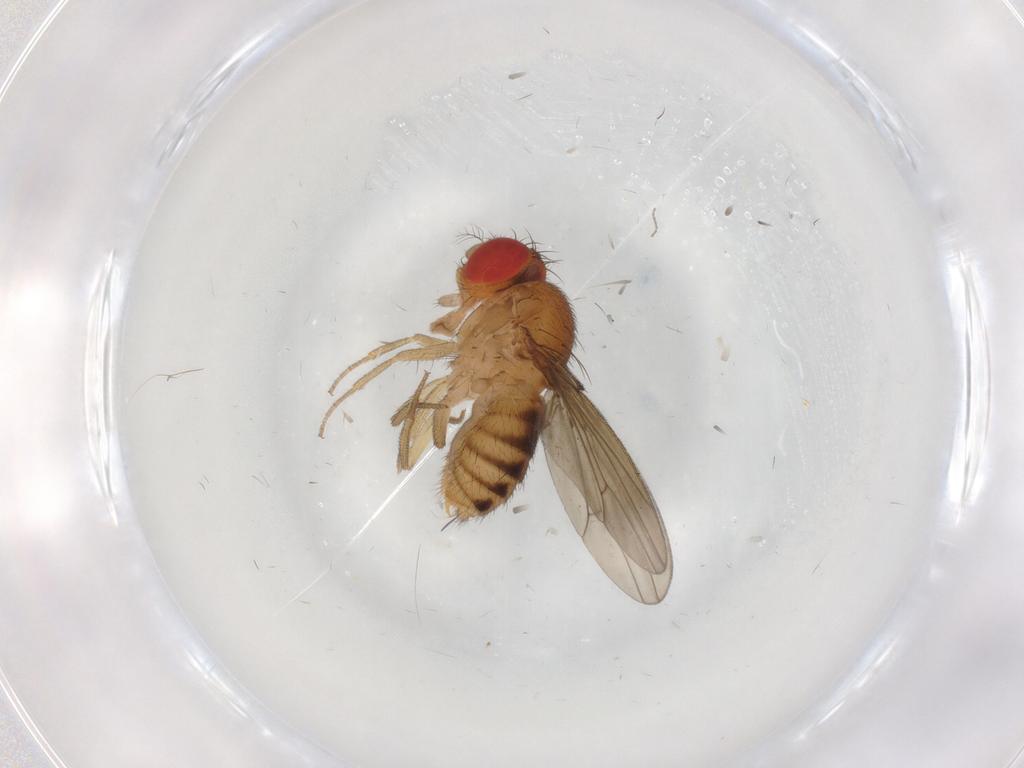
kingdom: Animalia
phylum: Arthropoda
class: Insecta
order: Diptera
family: Drosophilidae
